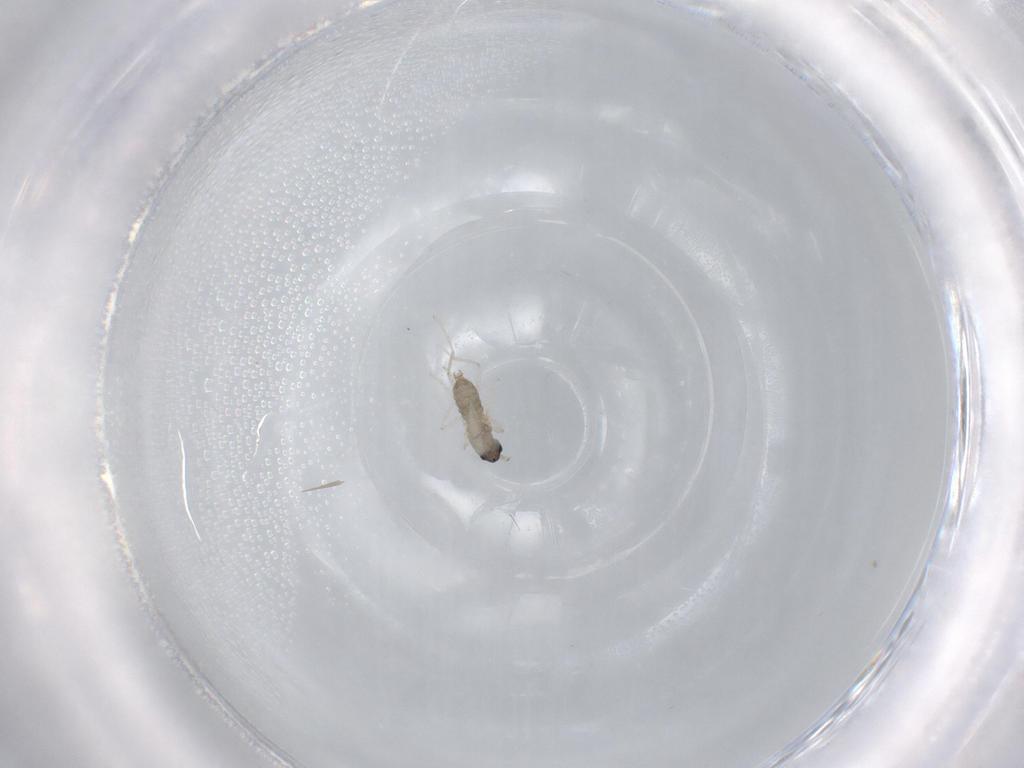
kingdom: Animalia
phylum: Arthropoda
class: Insecta
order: Diptera
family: Cecidomyiidae
